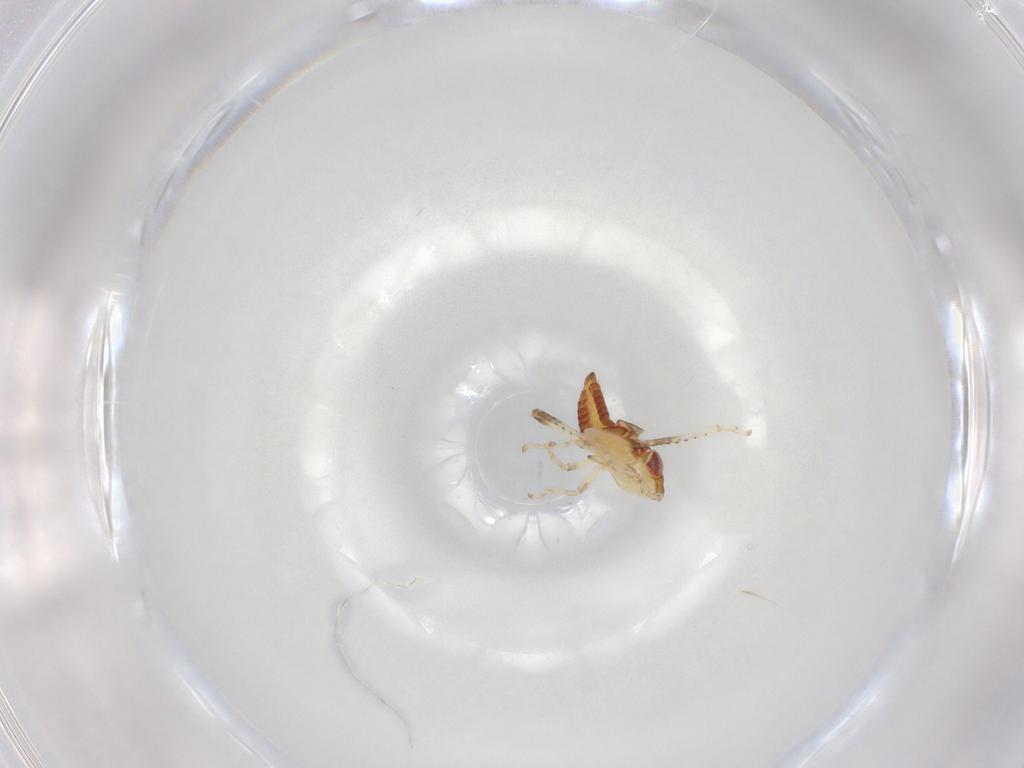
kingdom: Animalia
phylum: Arthropoda
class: Insecta
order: Hemiptera
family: Cicadellidae
